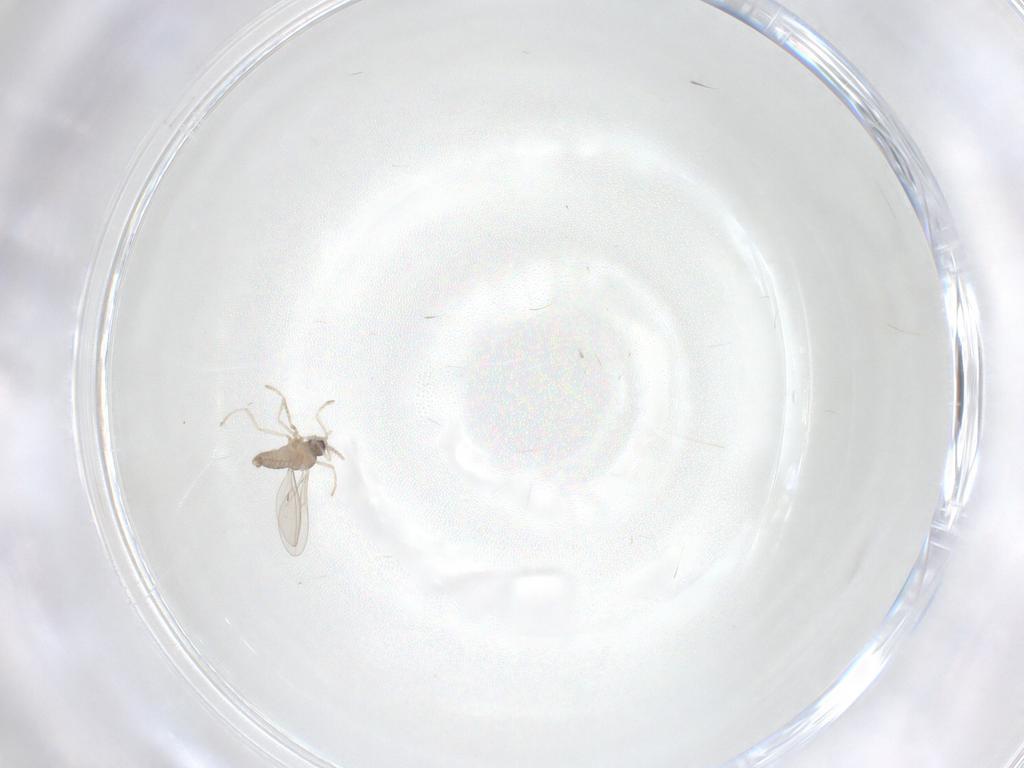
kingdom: Animalia
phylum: Arthropoda
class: Insecta
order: Diptera
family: Cecidomyiidae
